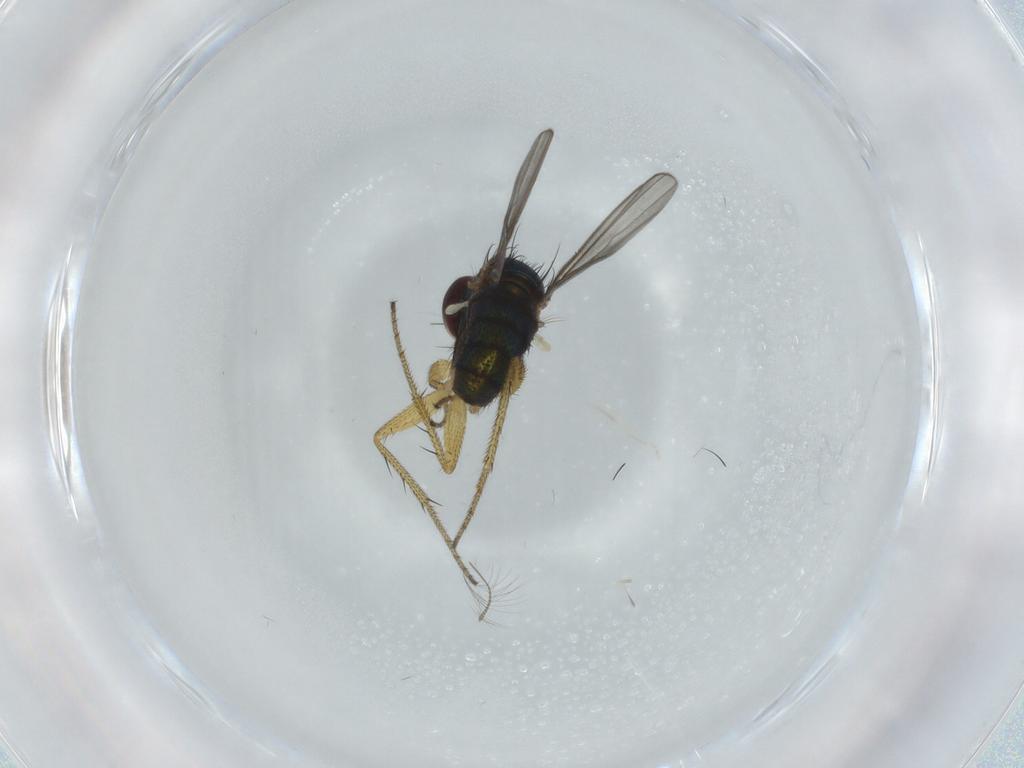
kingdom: Animalia
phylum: Arthropoda
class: Insecta
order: Diptera
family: Dolichopodidae
